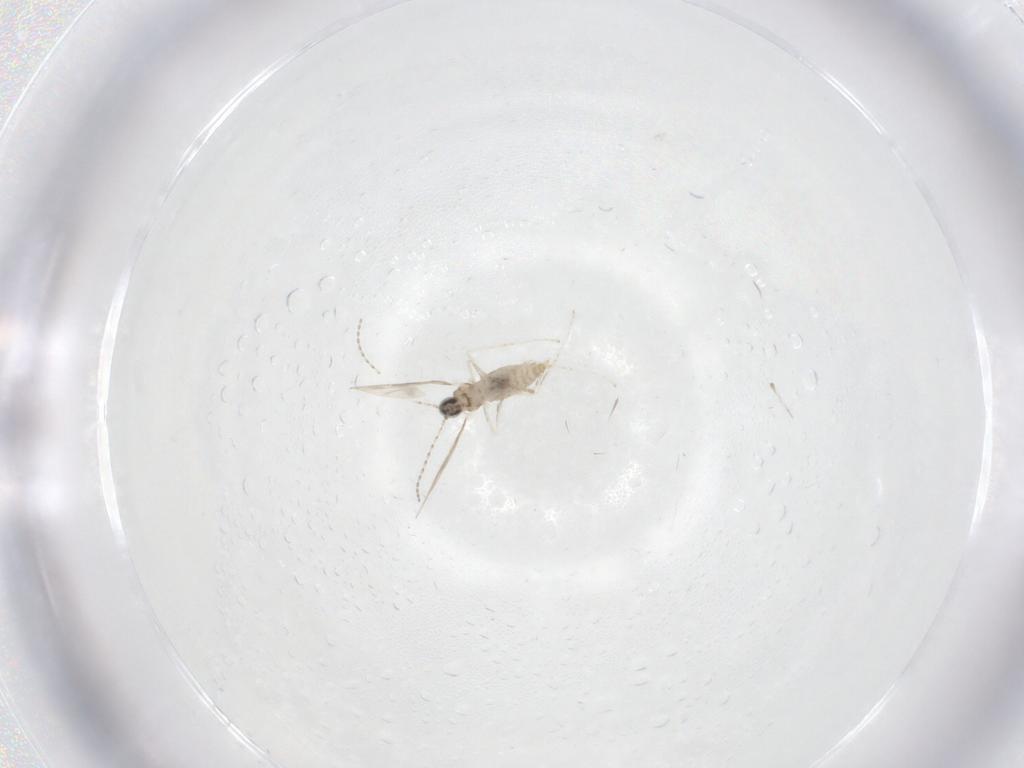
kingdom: Animalia
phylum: Arthropoda
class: Insecta
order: Diptera
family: Cecidomyiidae
